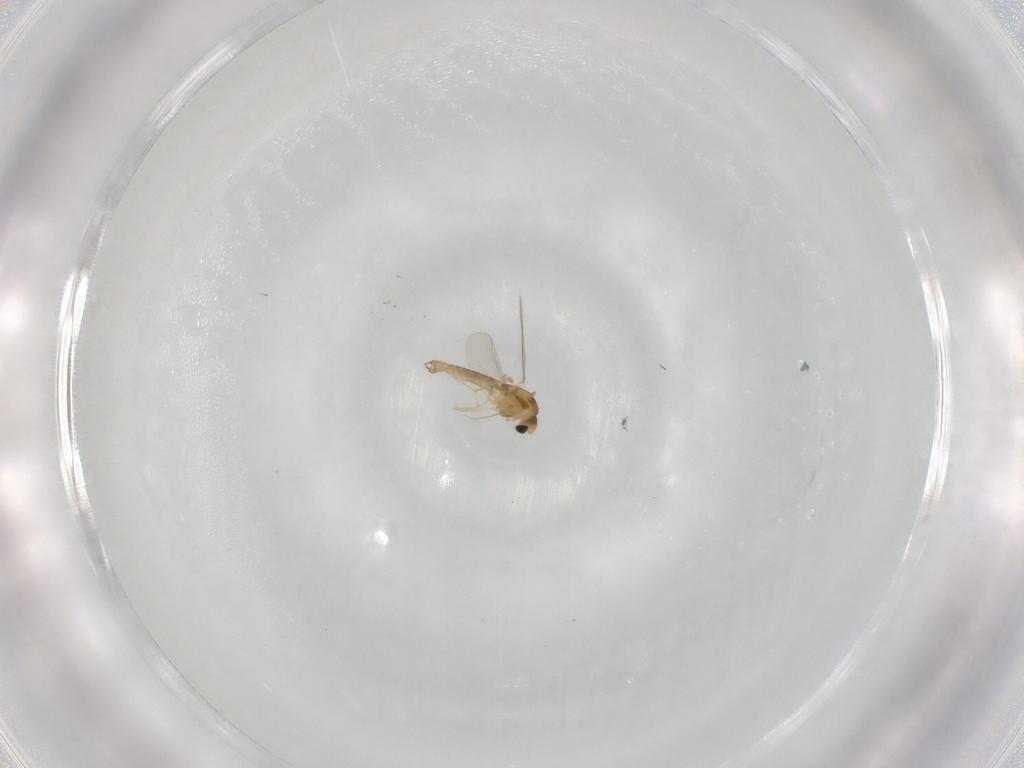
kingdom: Animalia
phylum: Arthropoda
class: Insecta
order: Diptera
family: Chironomidae
